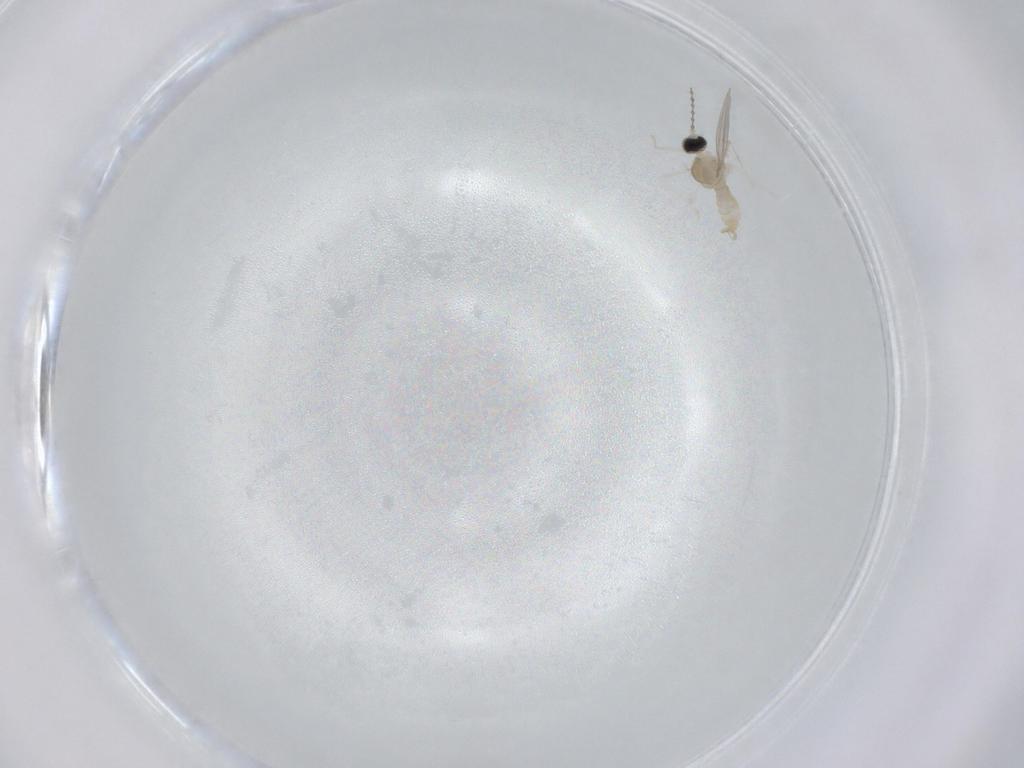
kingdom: Animalia
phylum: Arthropoda
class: Insecta
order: Diptera
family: Cecidomyiidae
